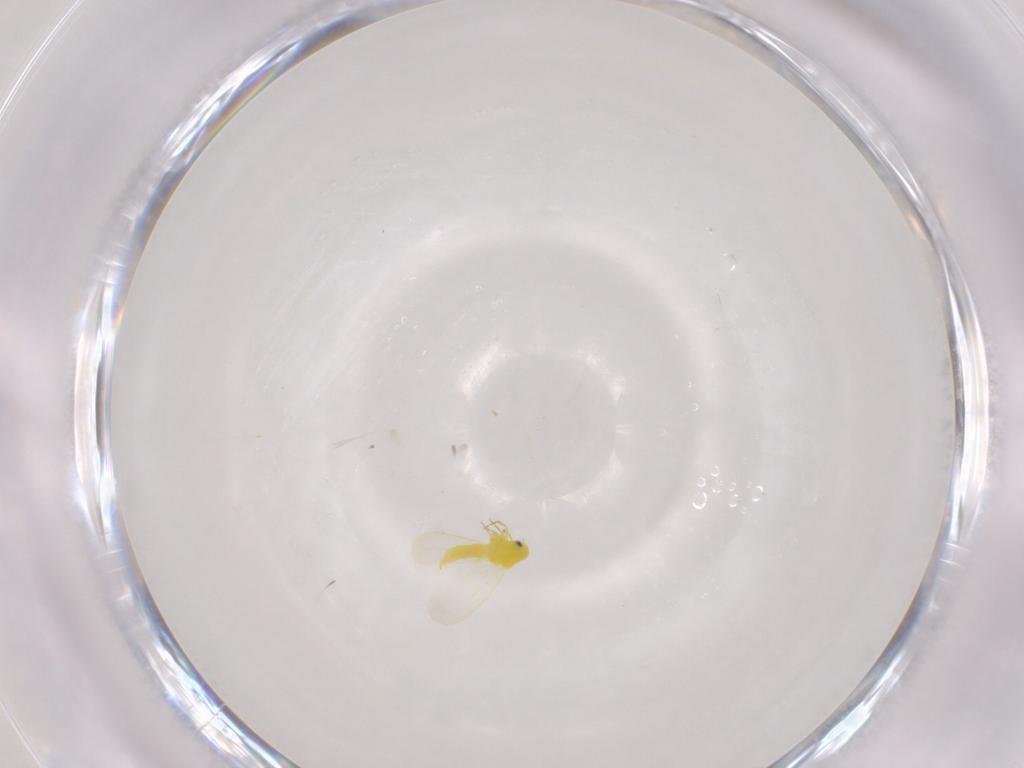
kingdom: Animalia
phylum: Arthropoda
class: Insecta
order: Hemiptera
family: Aleyrodidae
